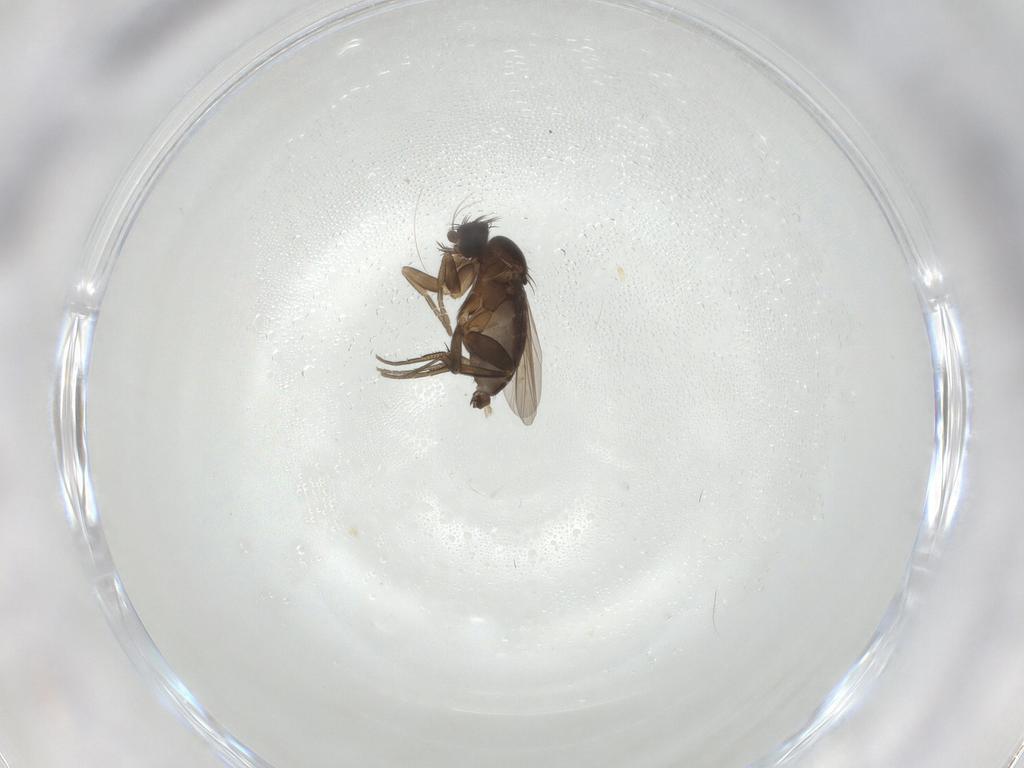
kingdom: Animalia
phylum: Arthropoda
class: Insecta
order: Diptera
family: Phoridae
